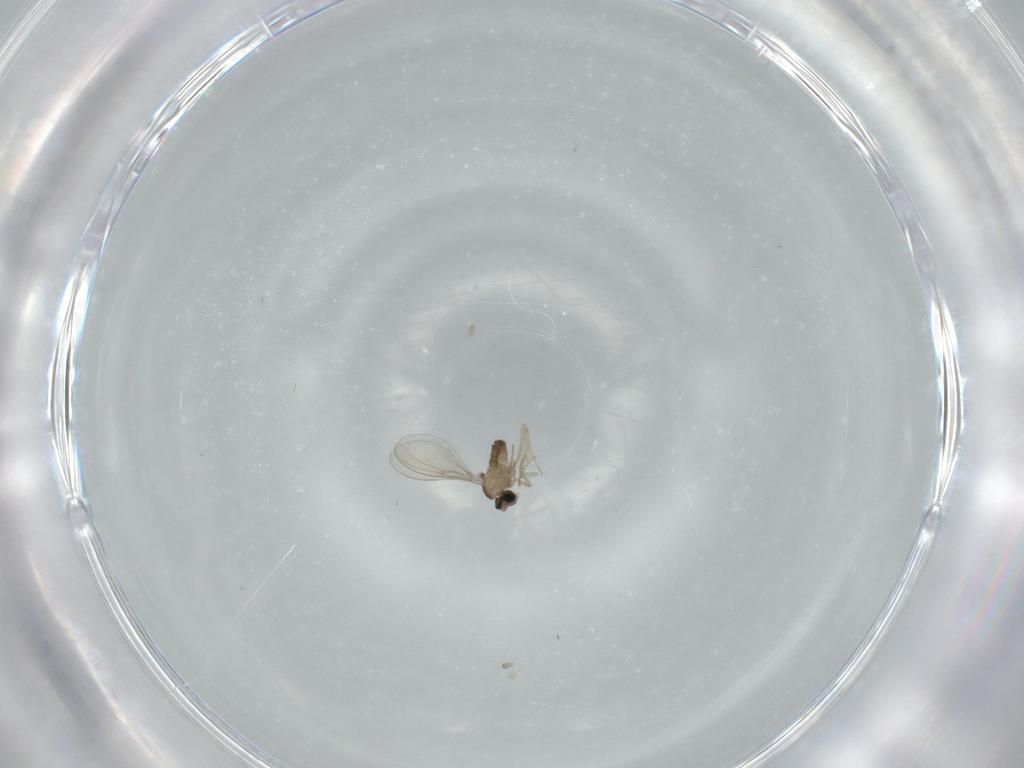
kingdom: Animalia
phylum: Arthropoda
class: Insecta
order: Diptera
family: Cecidomyiidae
